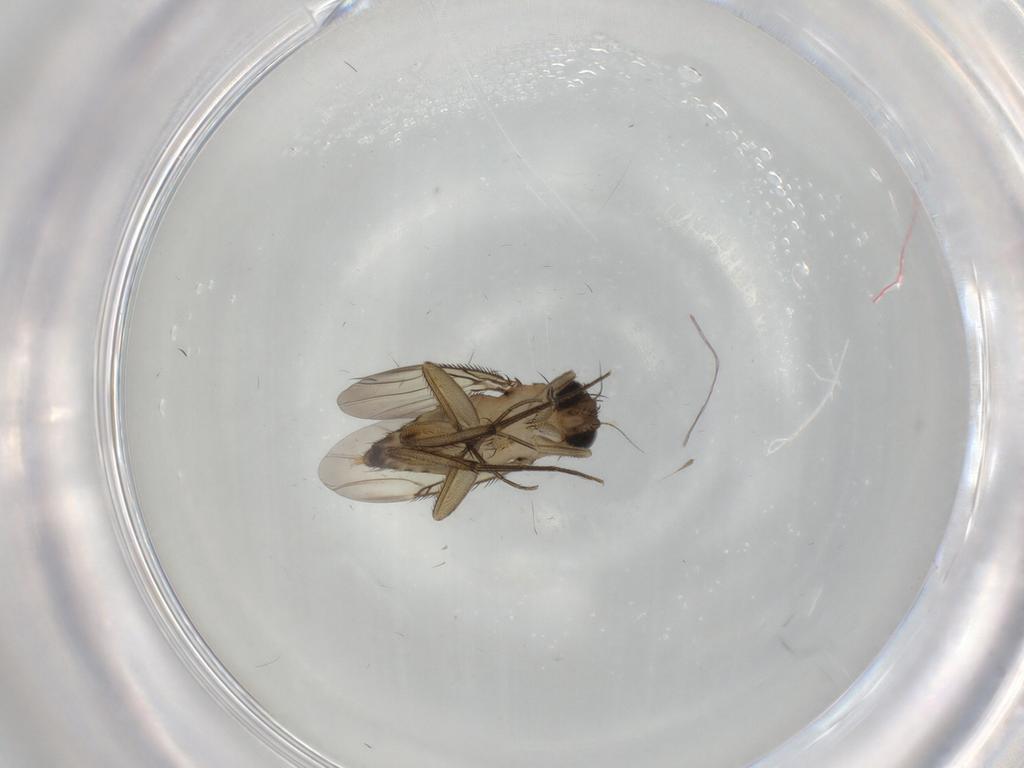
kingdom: Animalia
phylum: Arthropoda
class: Insecta
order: Diptera
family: Phoridae
